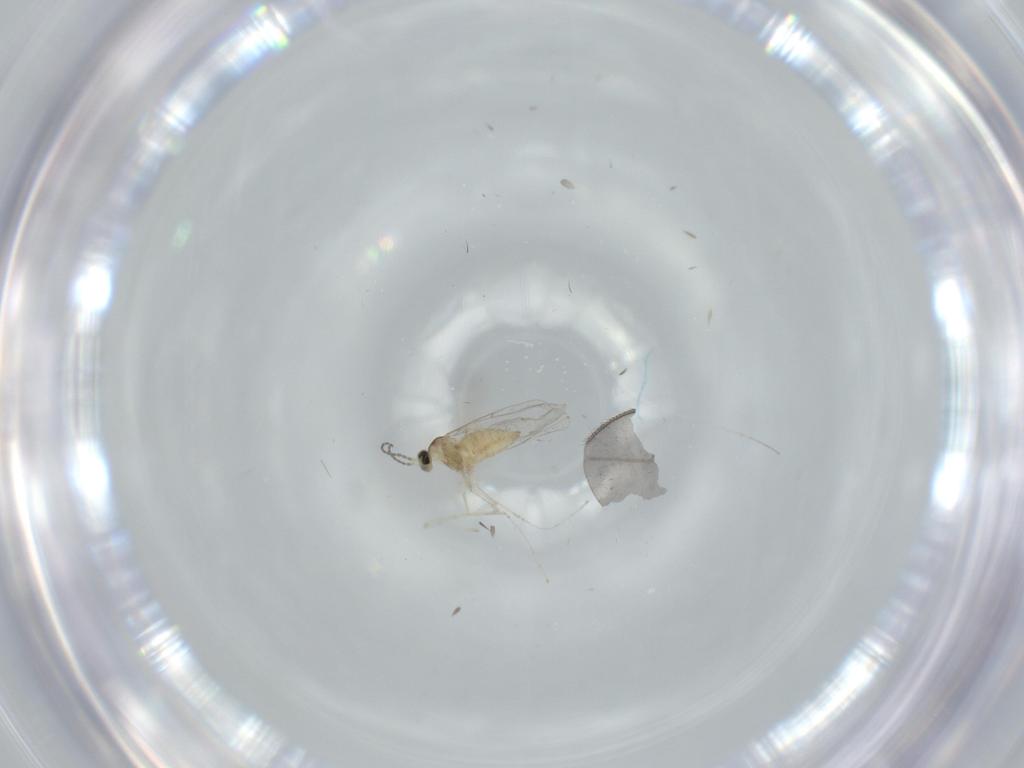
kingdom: Animalia
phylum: Arthropoda
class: Insecta
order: Diptera
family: Cecidomyiidae
